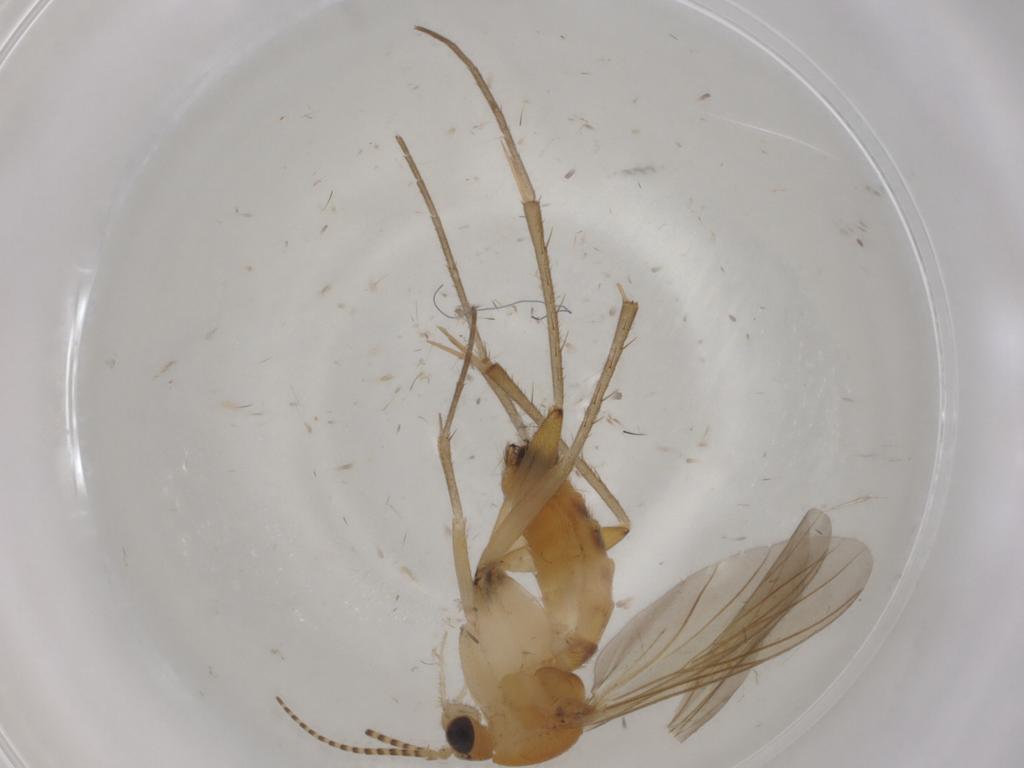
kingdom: Animalia
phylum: Arthropoda
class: Insecta
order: Diptera
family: Mycetophilidae
